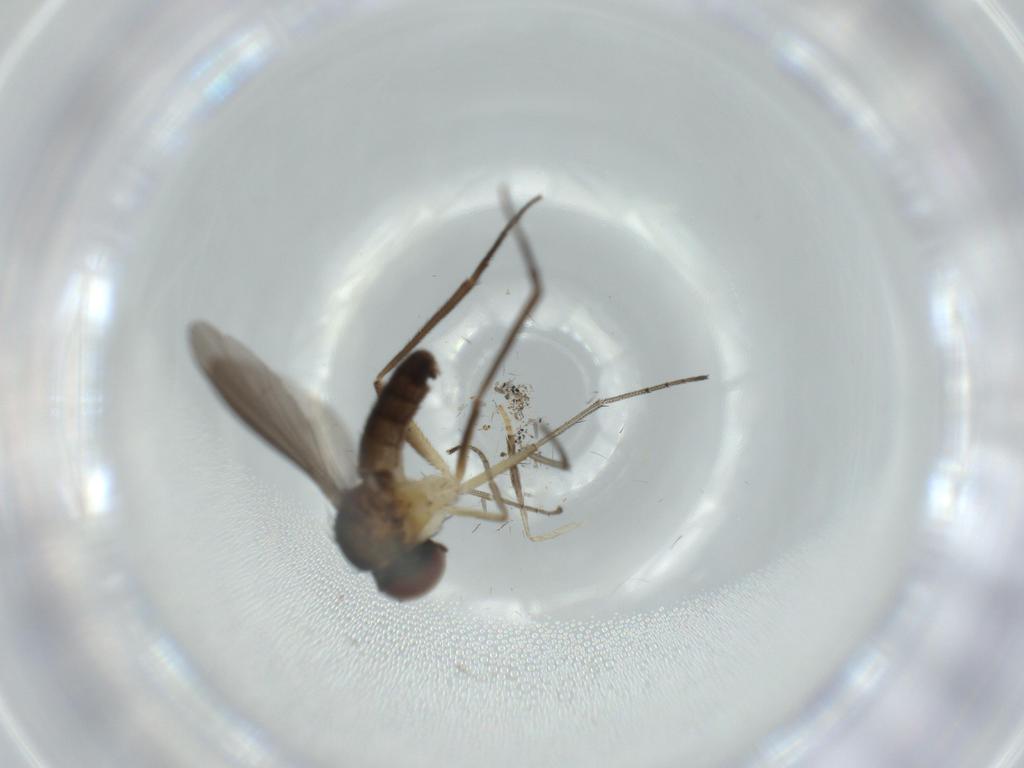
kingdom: Animalia
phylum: Arthropoda
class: Insecta
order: Diptera
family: Dolichopodidae
